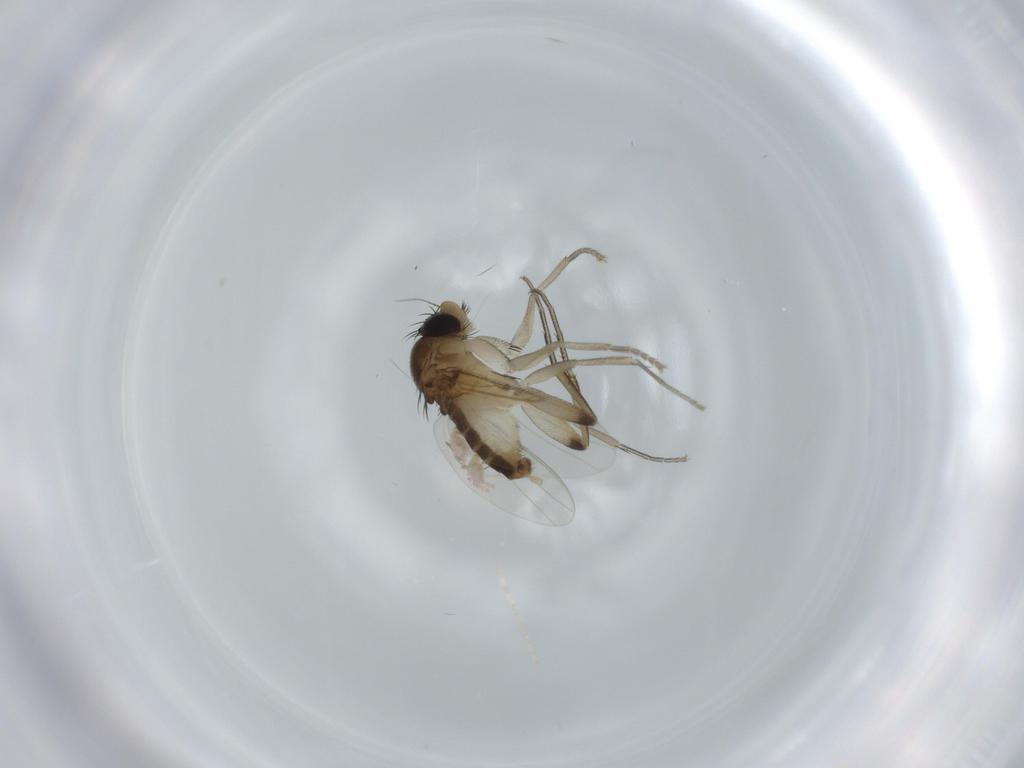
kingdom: Animalia
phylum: Arthropoda
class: Insecta
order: Diptera
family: Phoridae
